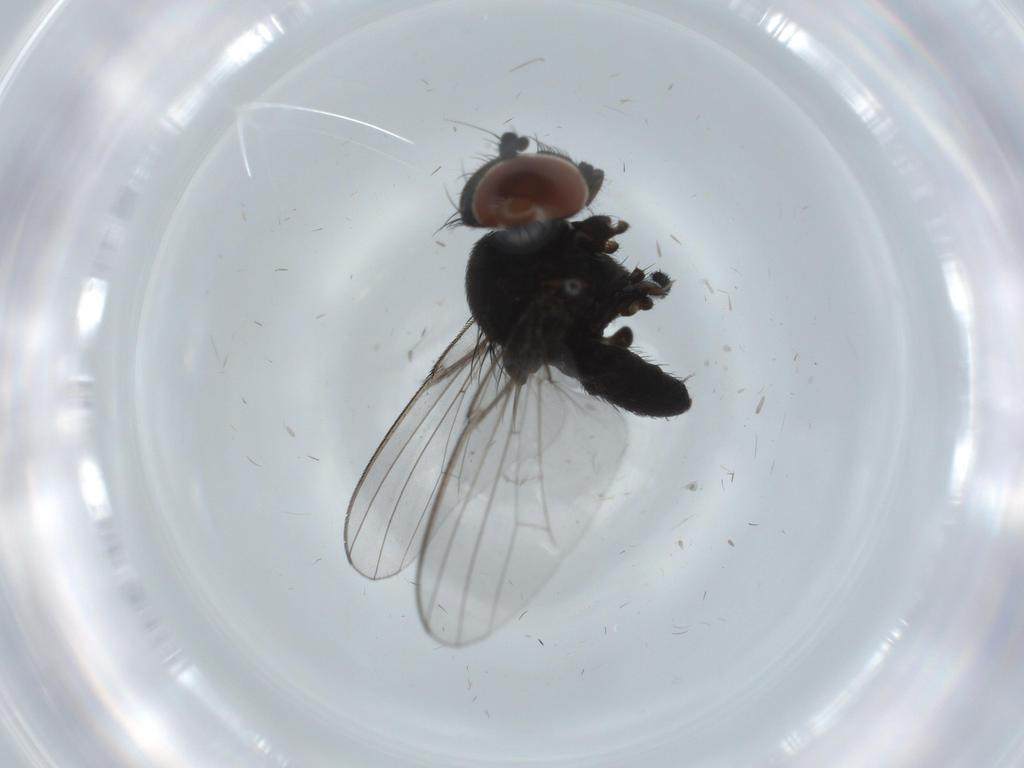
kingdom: Animalia
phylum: Arthropoda
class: Insecta
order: Diptera
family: Milichiidae
